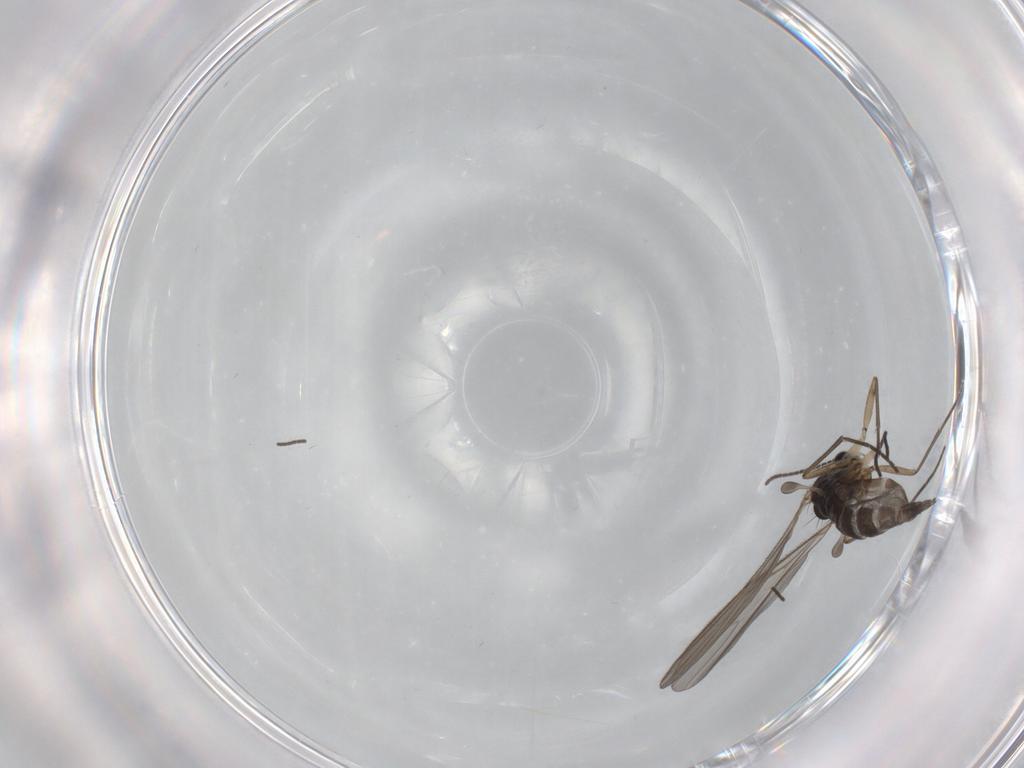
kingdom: Animalia
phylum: Arthropoda
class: Insecta
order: Diptera
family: Sciaridae
